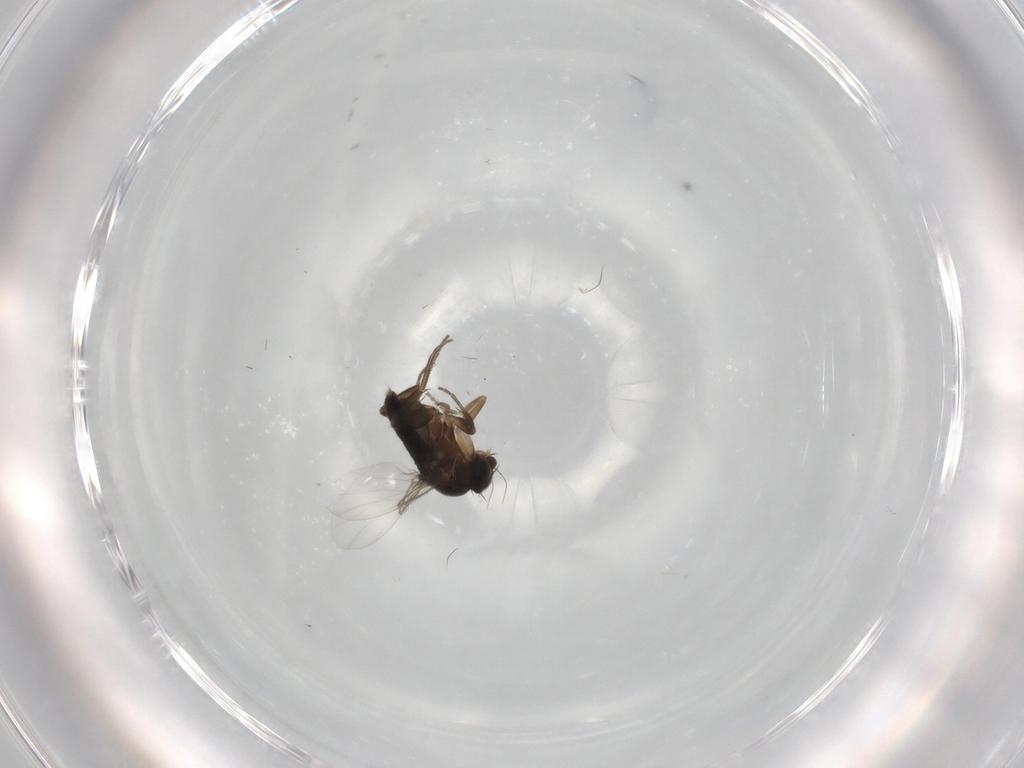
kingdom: Animalia
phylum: Arthropoda
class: Insecta
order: Diptera
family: Phoridae
